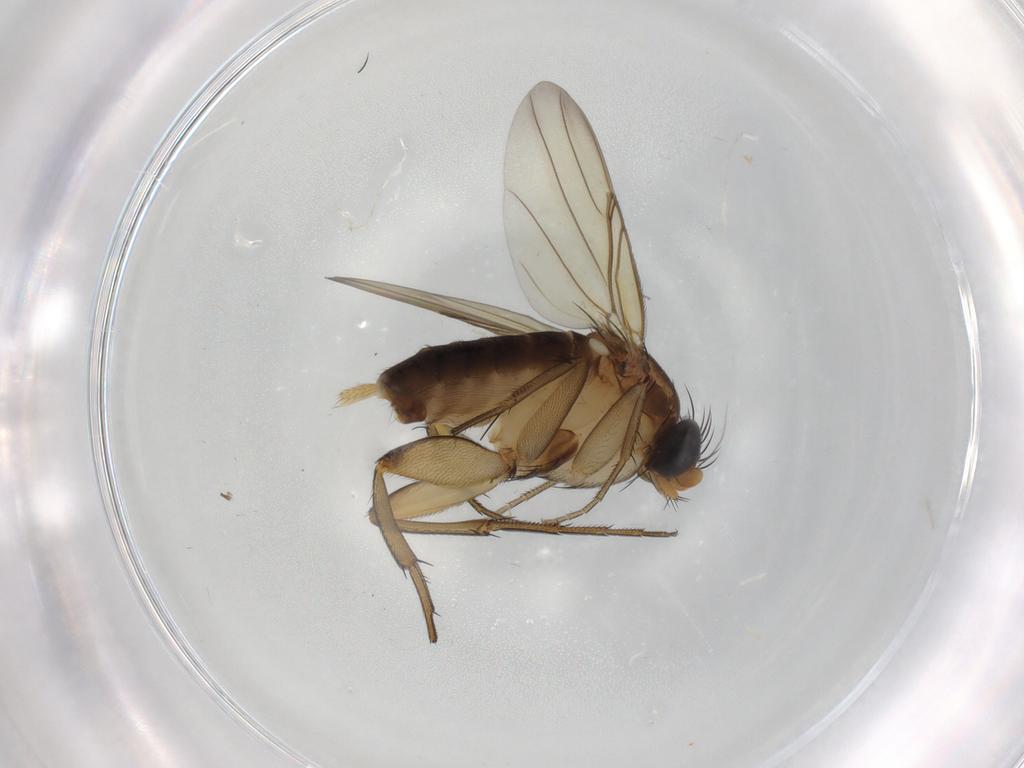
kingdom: Animalia
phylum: Arthropoda
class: Insecta
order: Diptera
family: Phoridae
